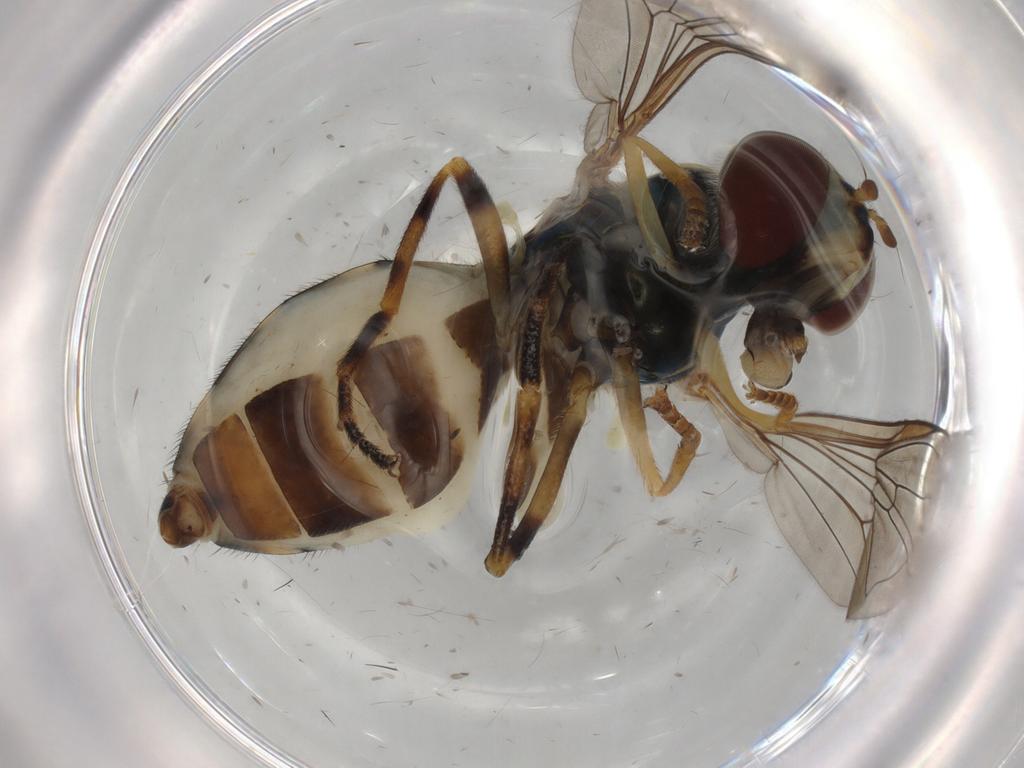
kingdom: Animalia
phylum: Arthropoda
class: Insecta
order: Diptera
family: Syrphidae
